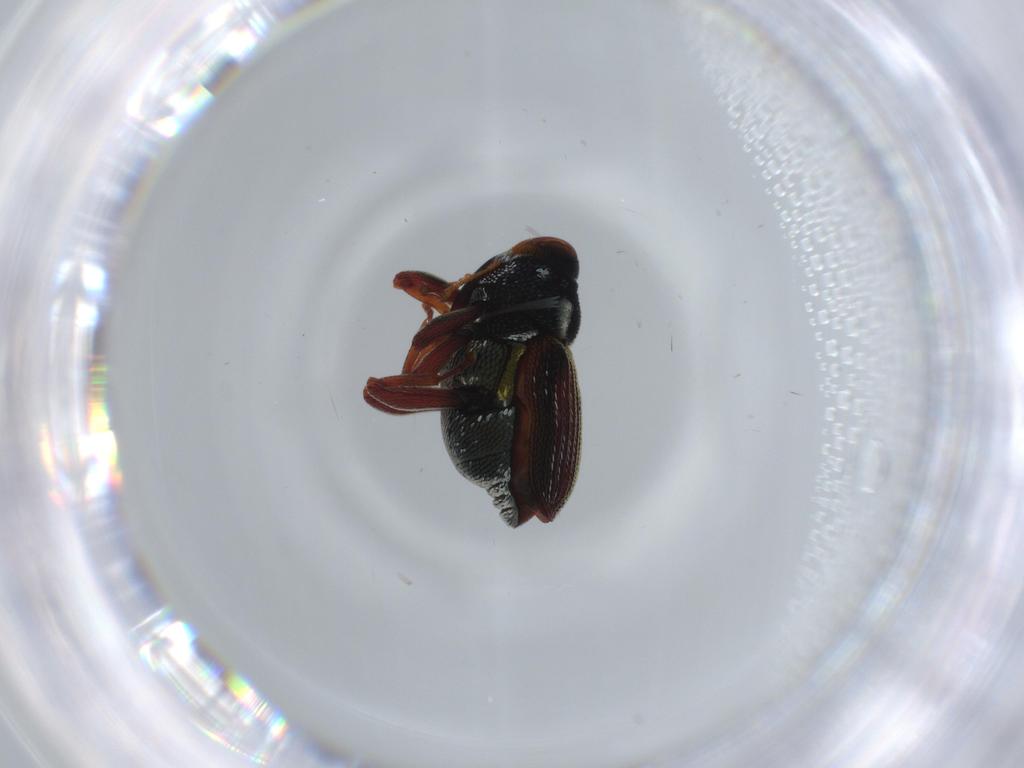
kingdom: Animalia
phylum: Arthropoda
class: Insecta
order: Coleoptera
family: Curculionidae
